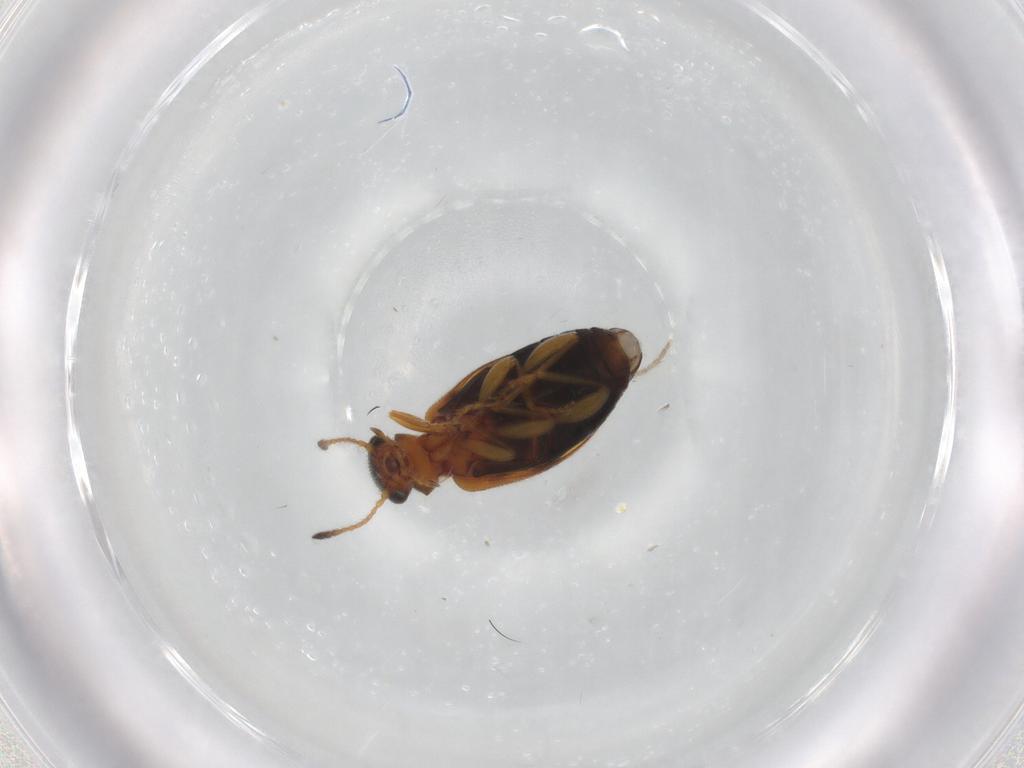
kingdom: Animalia
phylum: Arthropoda
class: Insecta
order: Coleoptera
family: Anthicidae
